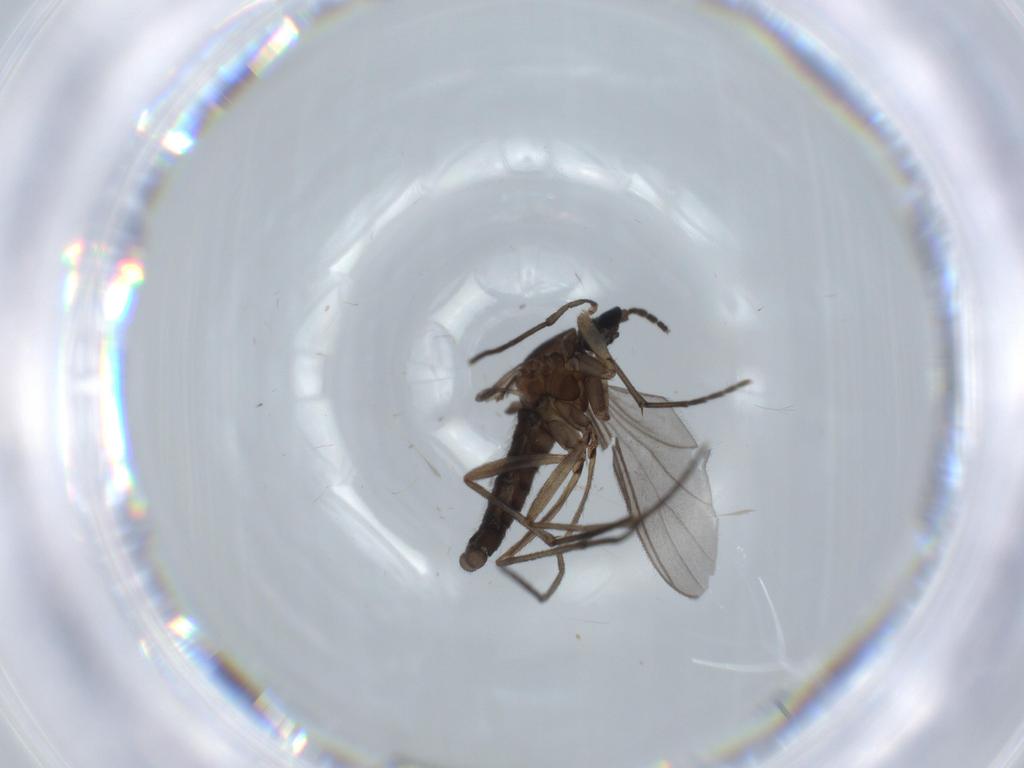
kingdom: Animalia
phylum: Arthropoda
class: Insecta
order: Diptera
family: Sciaridae
